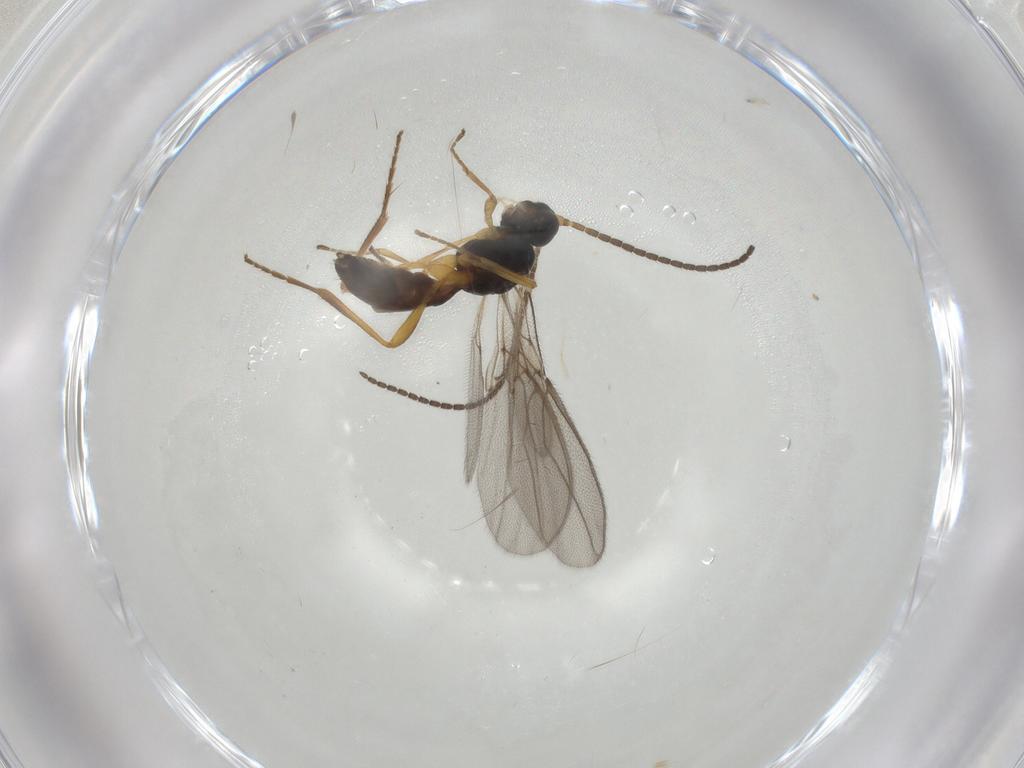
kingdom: Animalia
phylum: Arthropoda
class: Insecta
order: Hymenoptera
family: Braconidae
